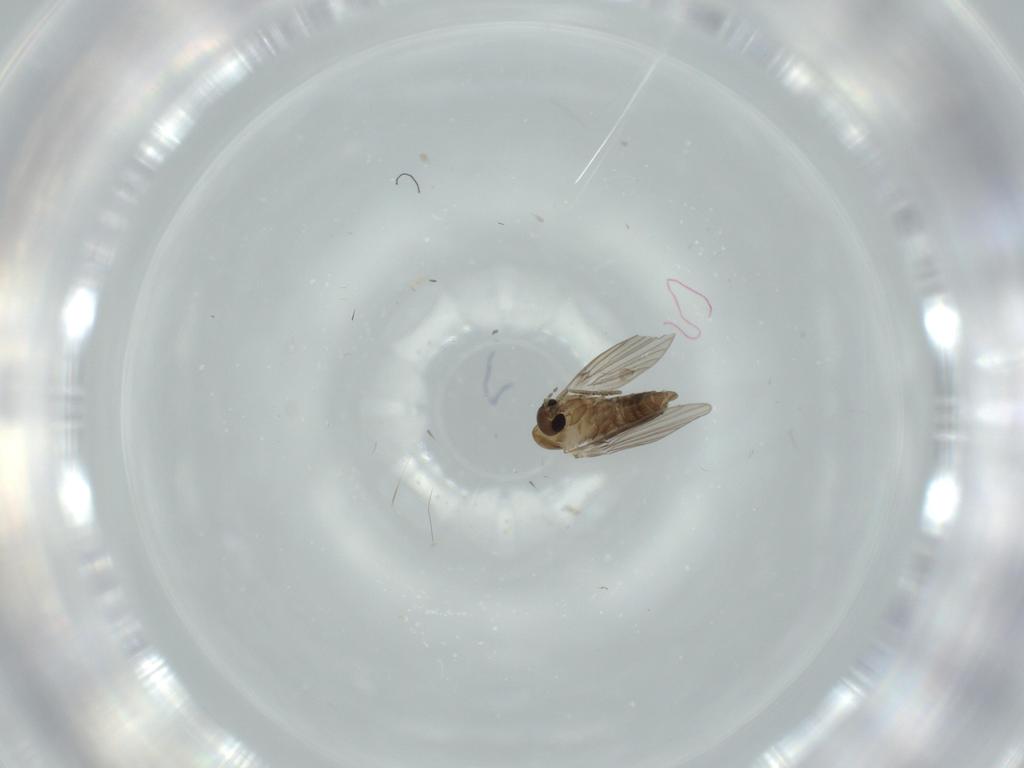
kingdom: Animalia
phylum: Arthropoda
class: Insecta
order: Diptera
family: Psychodidae
